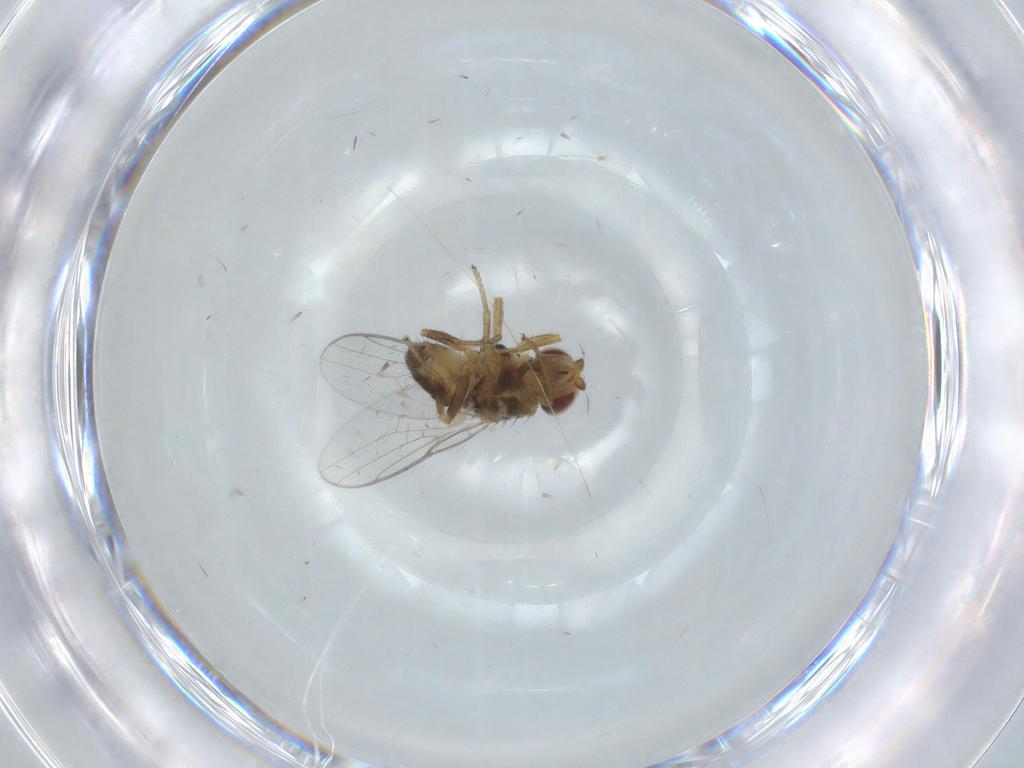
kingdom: Animalia
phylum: Arthropoda
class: Insecta
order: Diptera
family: Chloropidae
